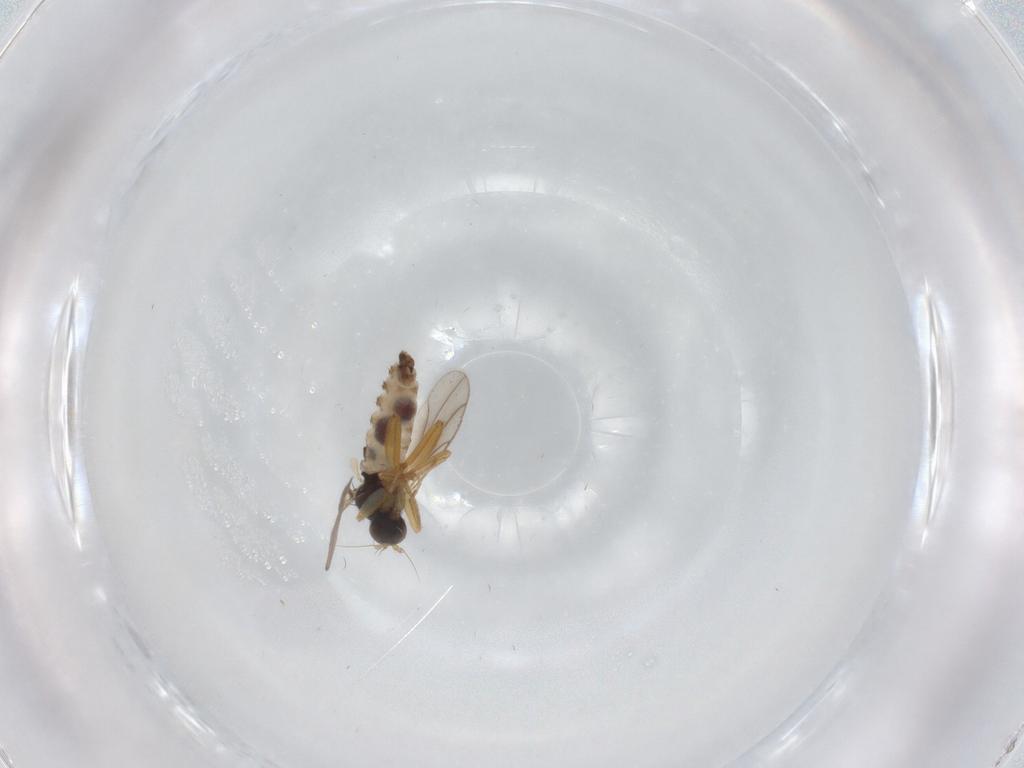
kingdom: Animalia
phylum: Arthropoda
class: Insecta
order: Diptera
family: Hybotidae
